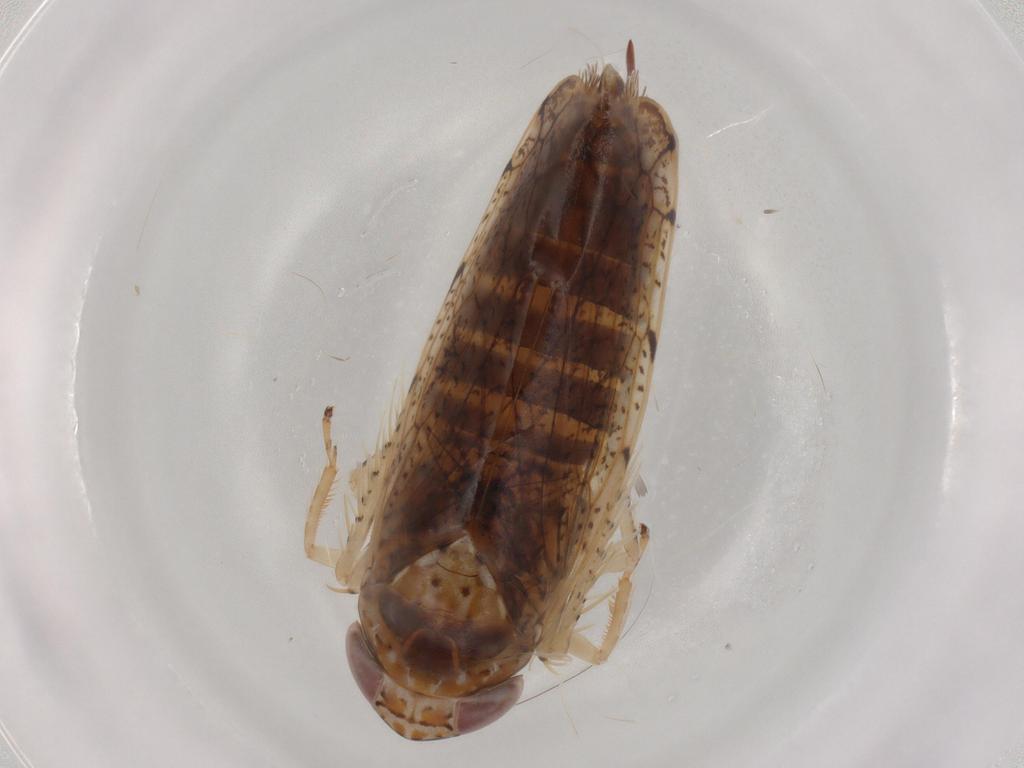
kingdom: Animalia
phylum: Arthropoda
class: Insecta
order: Hemiptera
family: Cicadellidae
